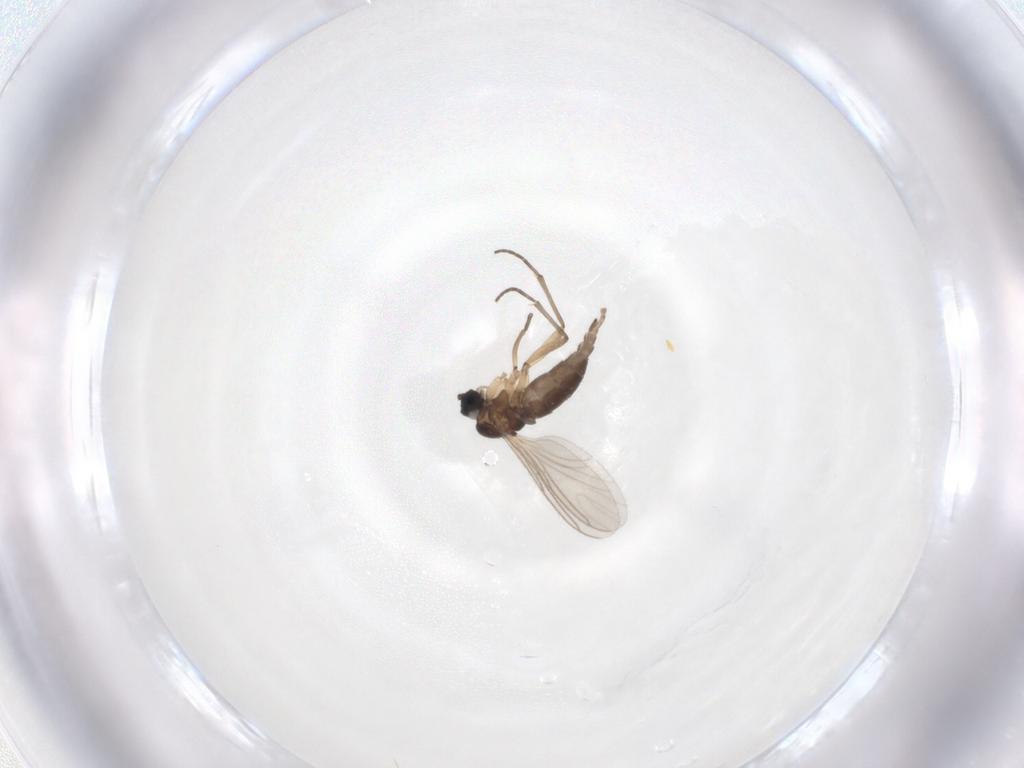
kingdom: Animalia
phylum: Arthropoda
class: Insecta
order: Diptera
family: Sciaridae
